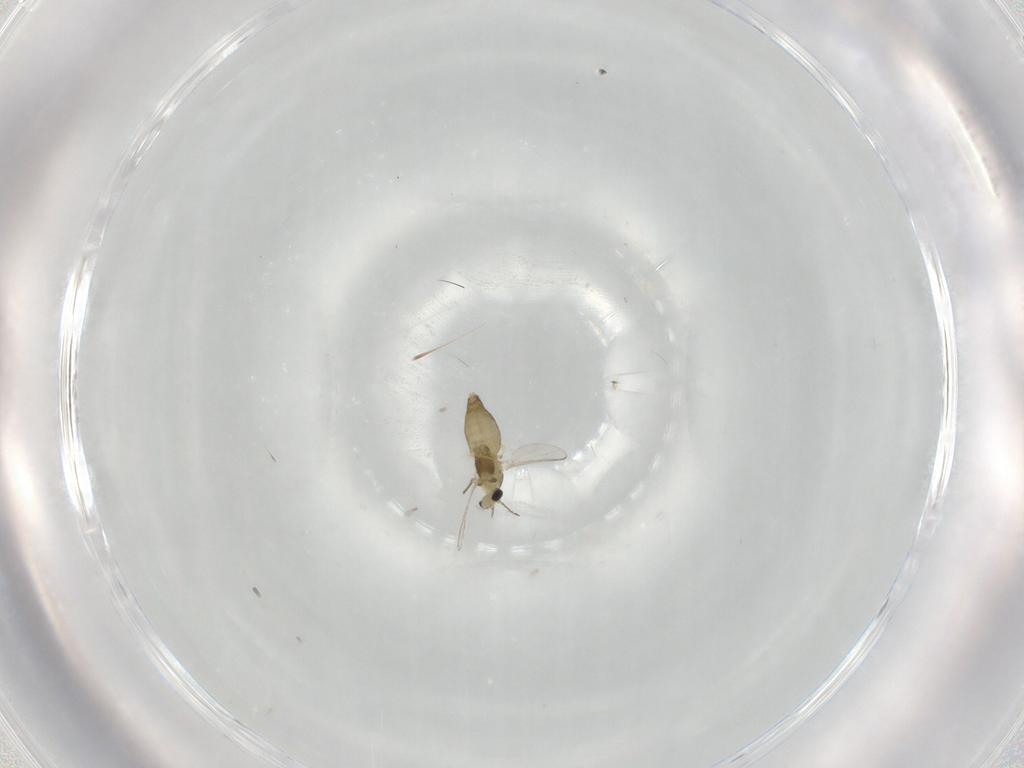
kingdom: Animalia
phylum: Arthropoda
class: Insecta
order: Diptera
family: Chironomidae
